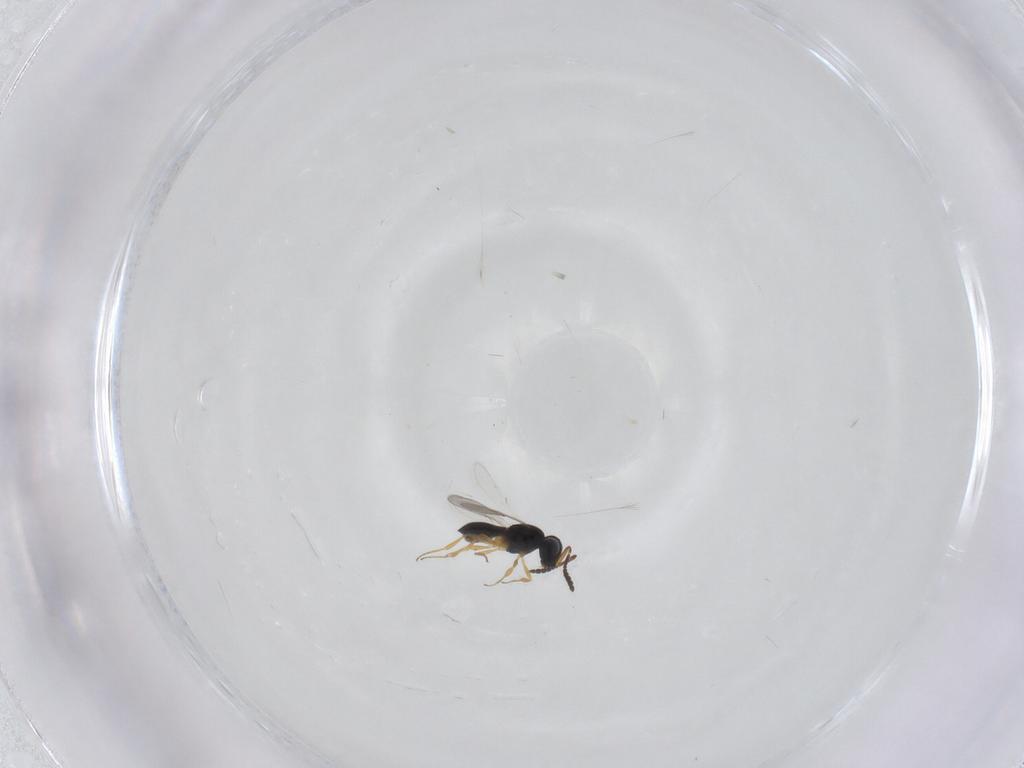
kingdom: Animalia
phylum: Arthropoda
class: Insecta
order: Hymenoptera
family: Scelionidae
